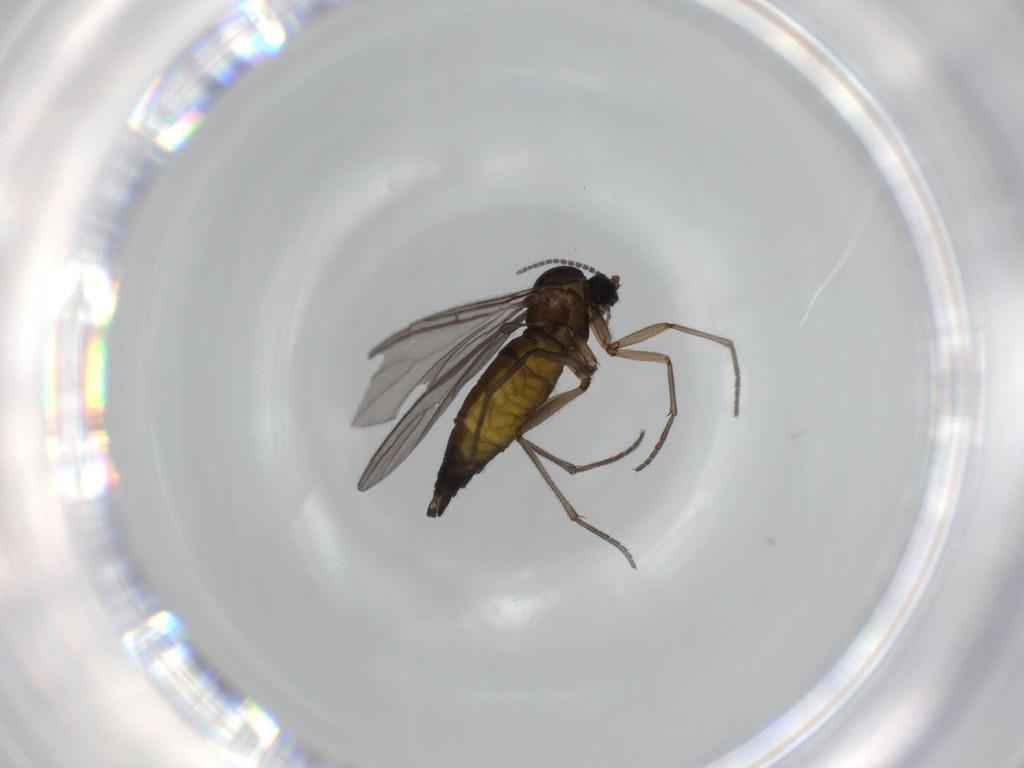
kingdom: Animalia
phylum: Arthropoda
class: Insecta
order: Diptera
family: Sciaridae
